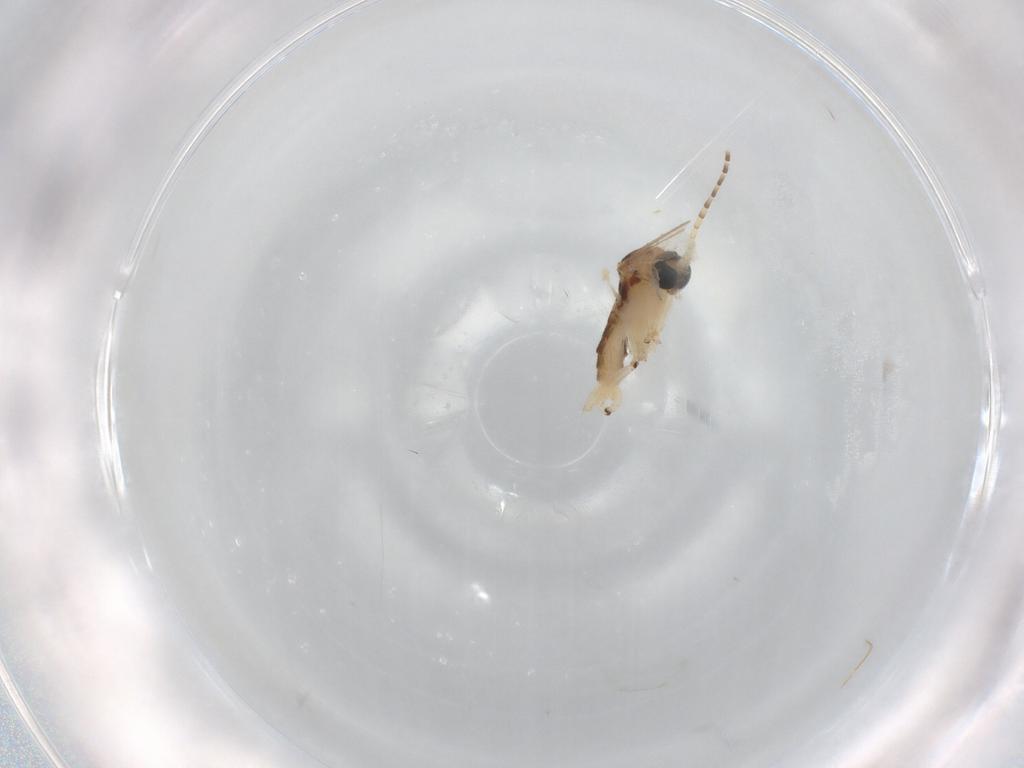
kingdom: Animalia
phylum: Arthropoda
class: Insecta
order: Diptera
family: Sciaridae
